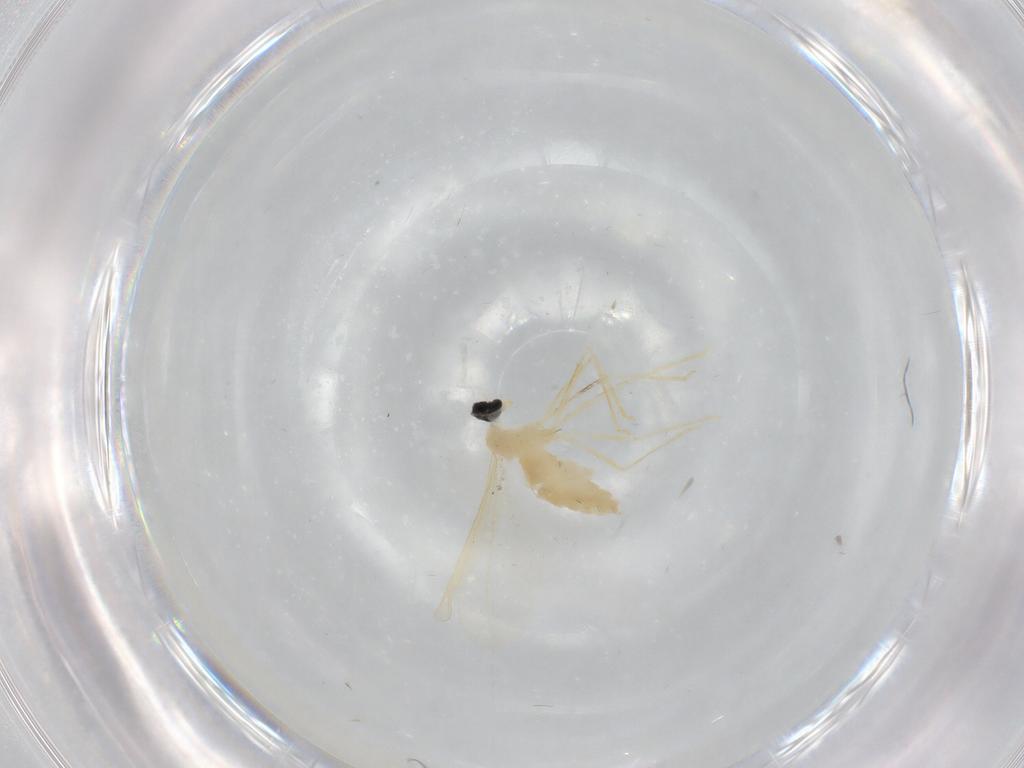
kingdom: Animalia
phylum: Arthropoda
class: Insecta
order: Diptera
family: Cecidomyiidae
